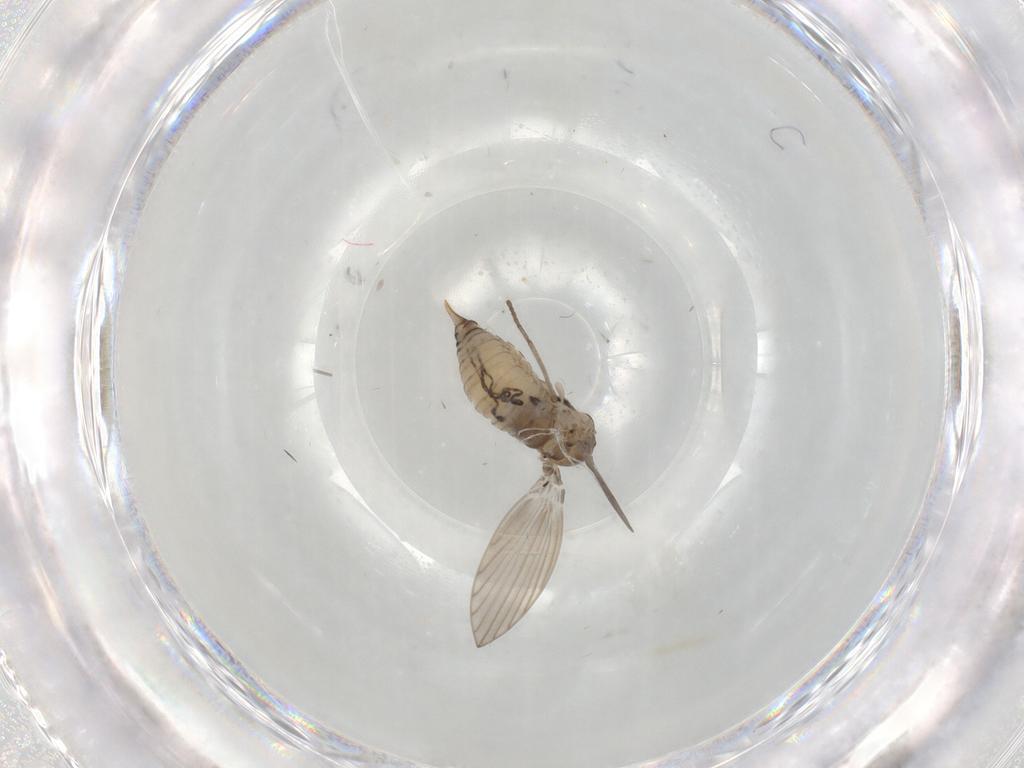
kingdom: Animalia
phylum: Arthropoda
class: Insecta
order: Diptera
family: Psychodidae
